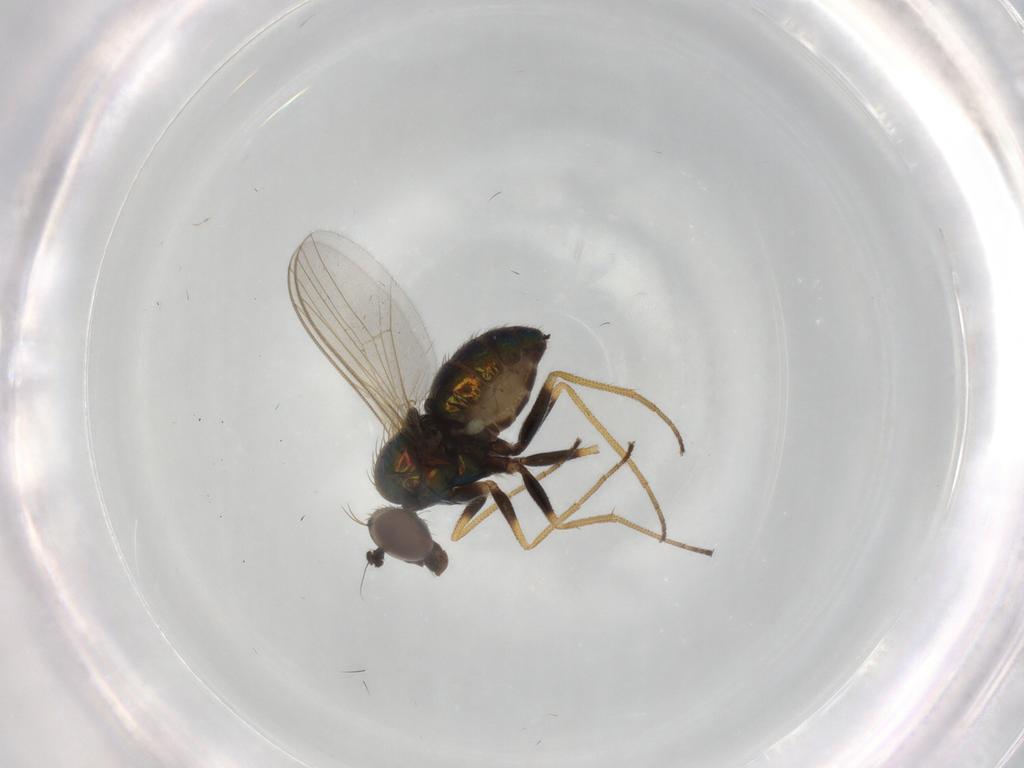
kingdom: Animalia
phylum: Arthropoda
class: Insecta
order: Diptera
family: Dolichopodidae
